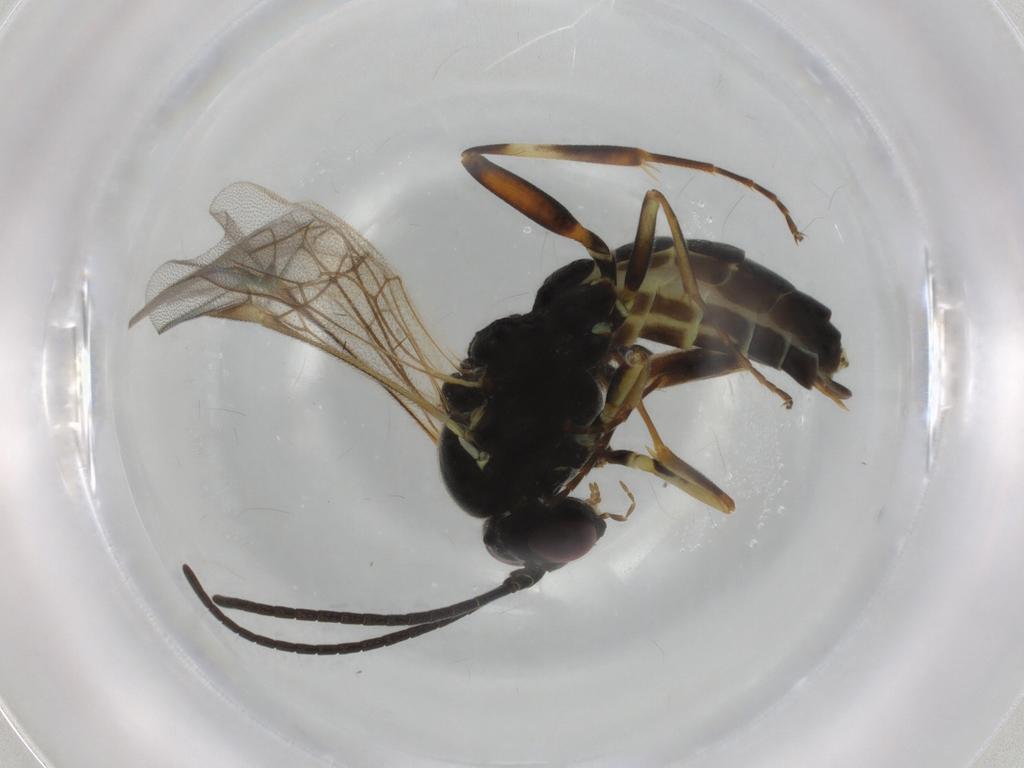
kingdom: Animalia
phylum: Arthropoda
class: Insecta
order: Hymenoptera
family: Ichneumonidae
